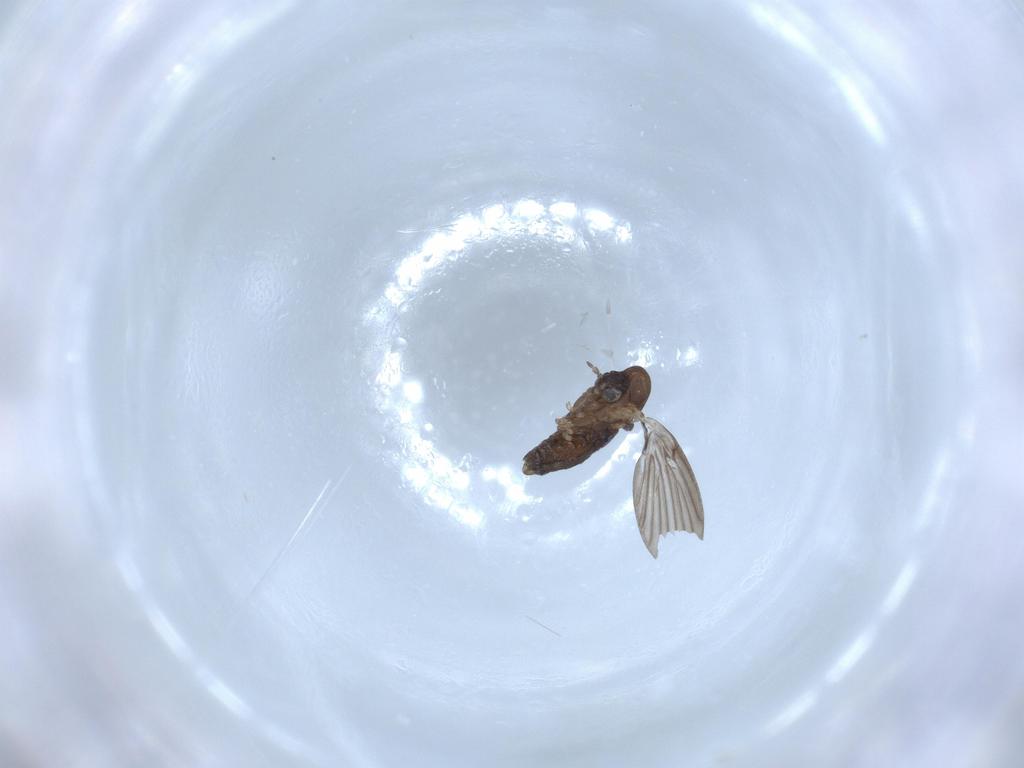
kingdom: Animalia
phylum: Arthropoda
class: Insecta
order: Diptera
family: Psychodidae
